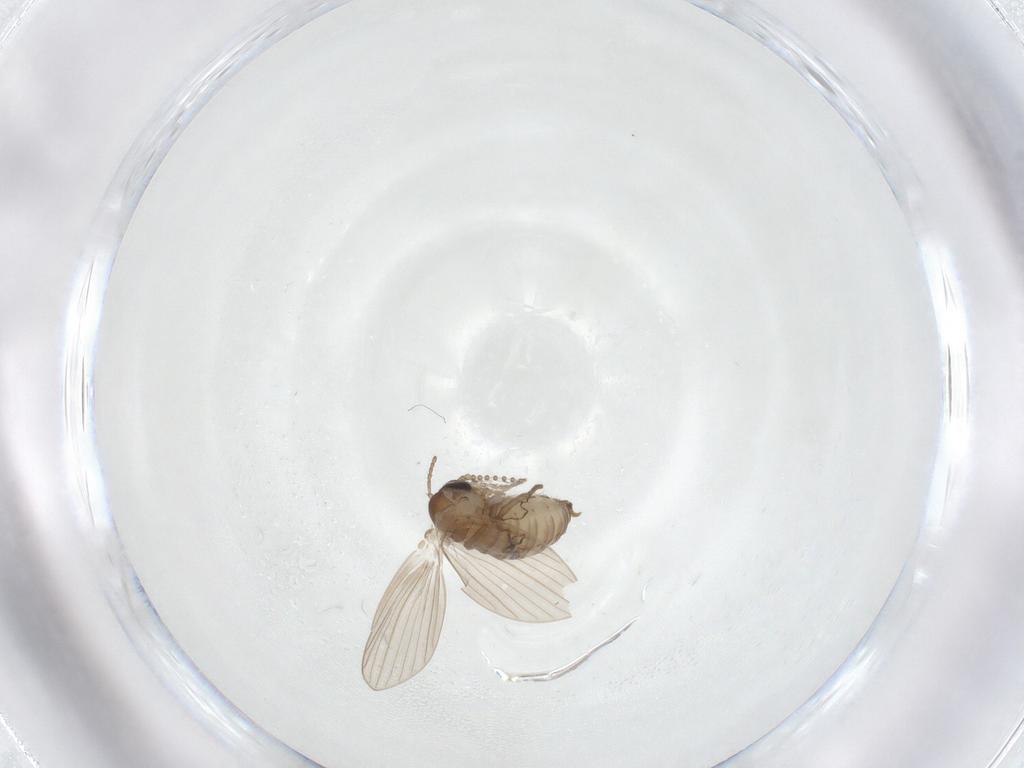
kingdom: Animalia
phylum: Arthropoda
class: Insecta
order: Diptera
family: Psychodidae
